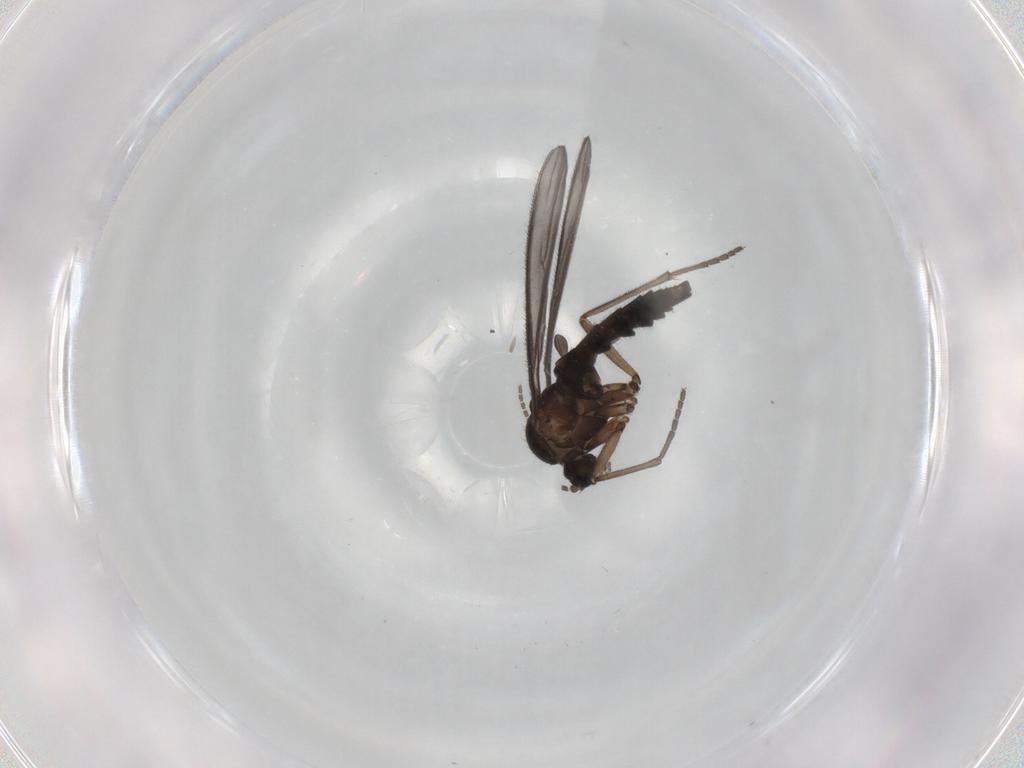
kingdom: Animalia
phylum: Arthropoda
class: Insecta
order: Diptera
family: Sciaridae
